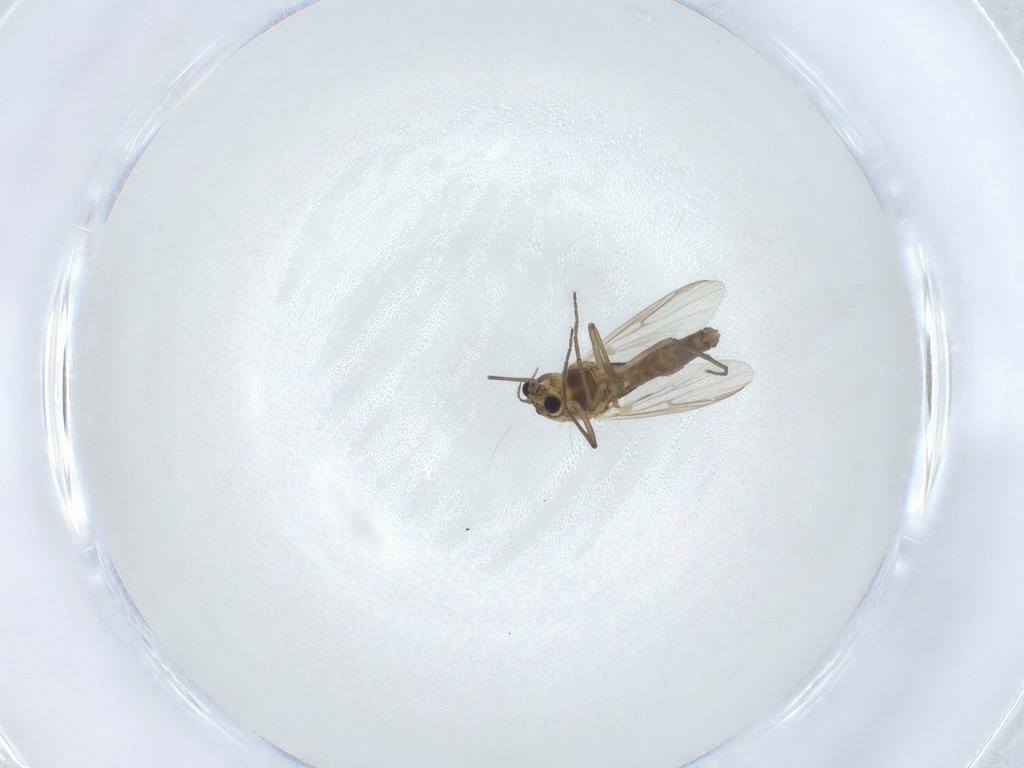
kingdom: Animalia
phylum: Arthropoda
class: Insecta
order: Diptera
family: Chironomidae
